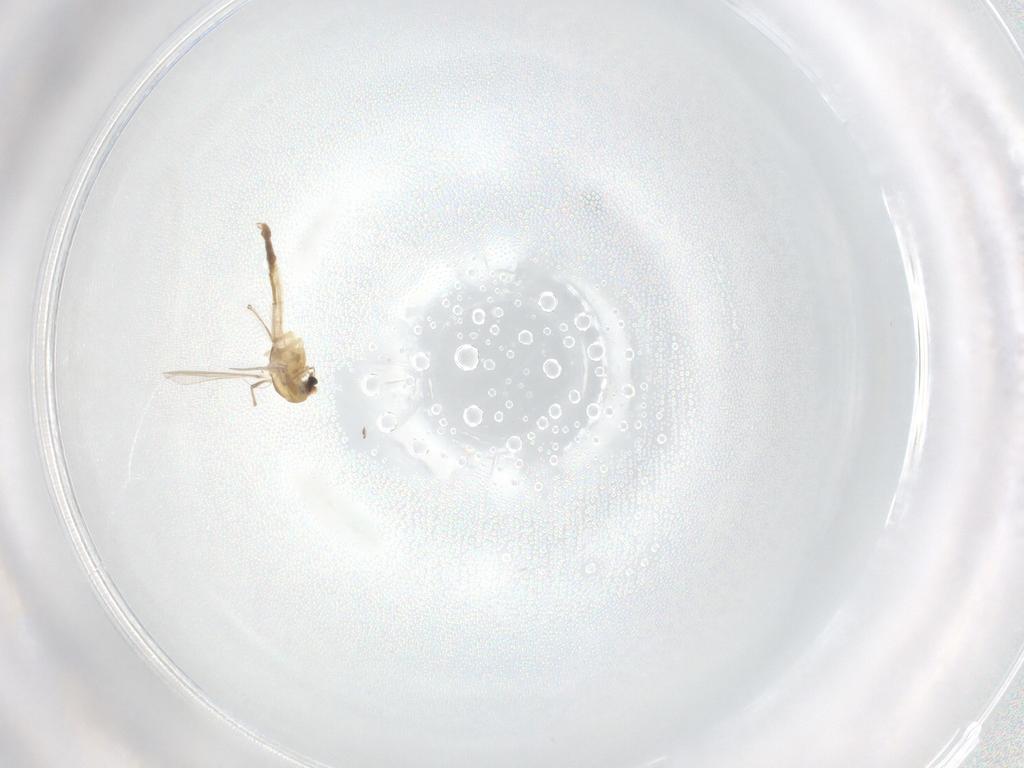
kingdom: Animalia
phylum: Arthropoda
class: Insecta
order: Diptera
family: Chironomidae
